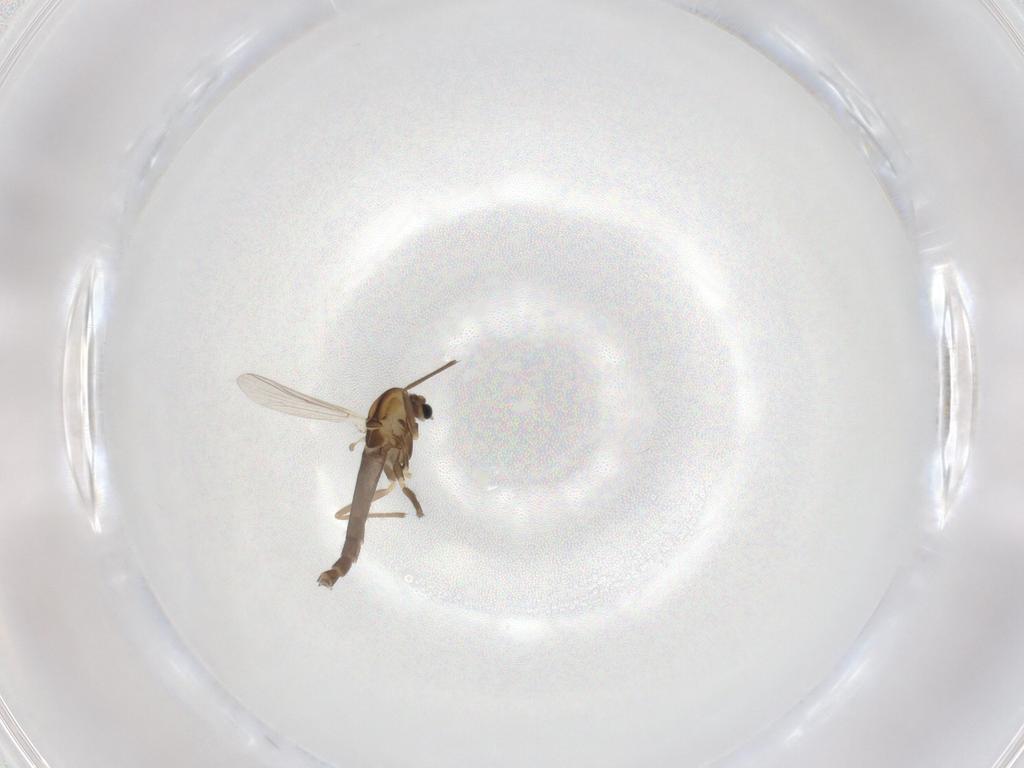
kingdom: Animalia
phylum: Arthropoda
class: Insecta
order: Diptera
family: Chironomidae
